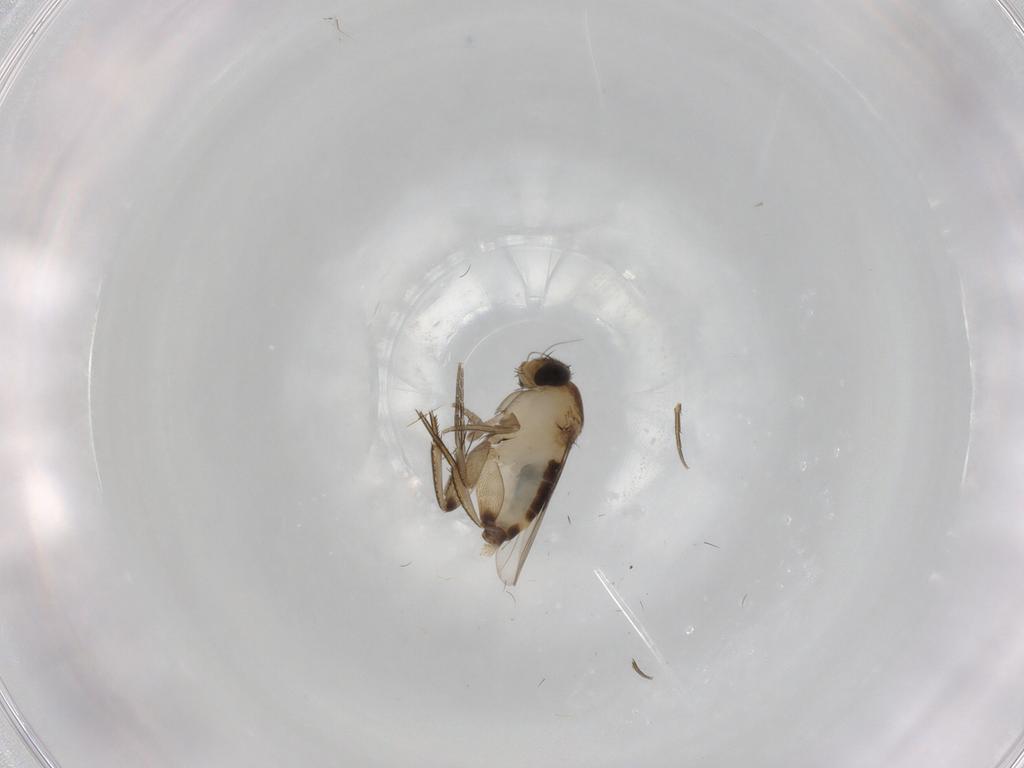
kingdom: Animalia
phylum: Arthropoda
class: Insecta
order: Diptera
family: Phoridae
